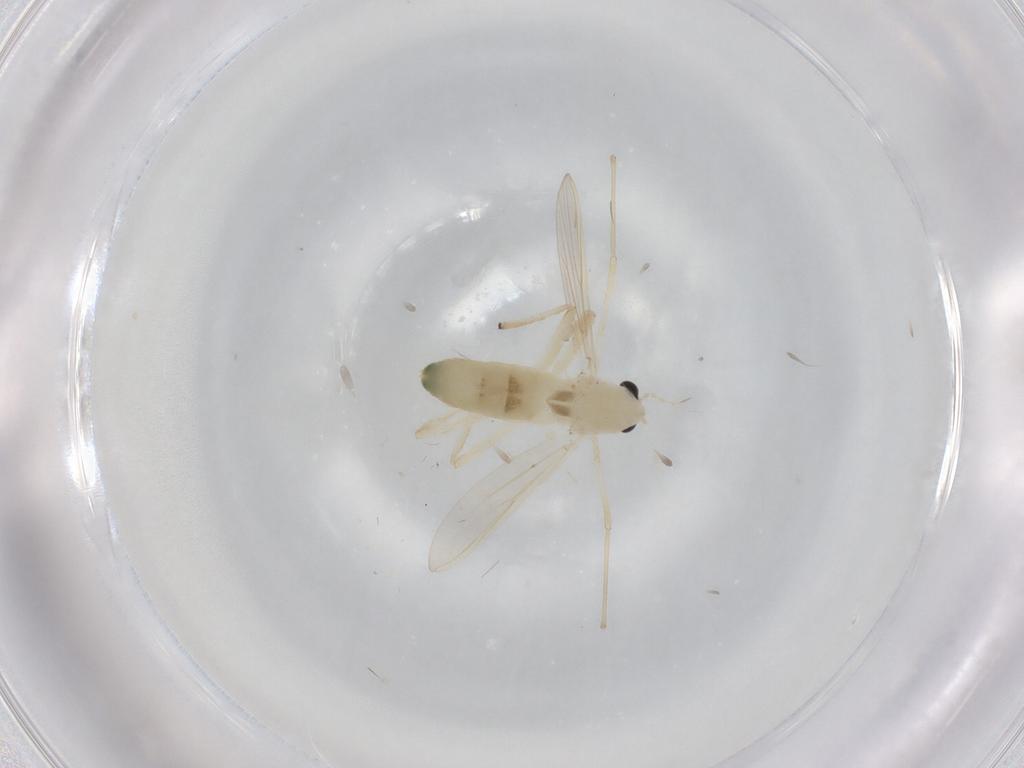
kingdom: Animalia
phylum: Arthropoda
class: Insecta
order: Diptera
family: Chironomidae
